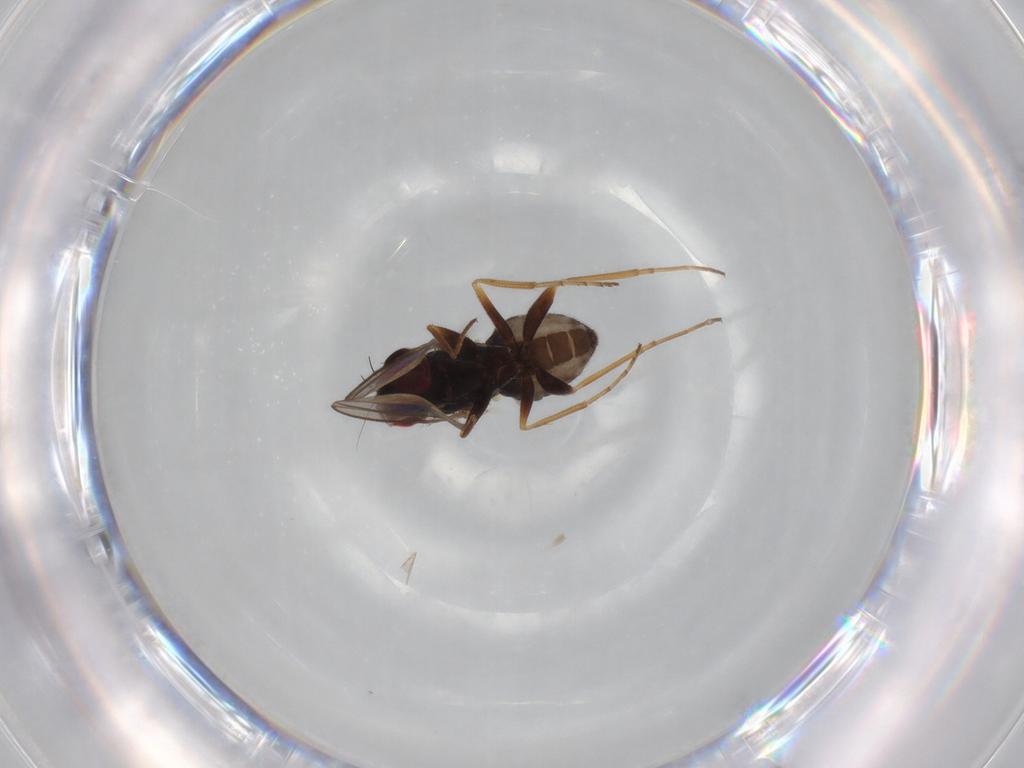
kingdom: Animalia
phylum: Arthropoda
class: Insecta
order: Diptera
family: Dolichopodidae
